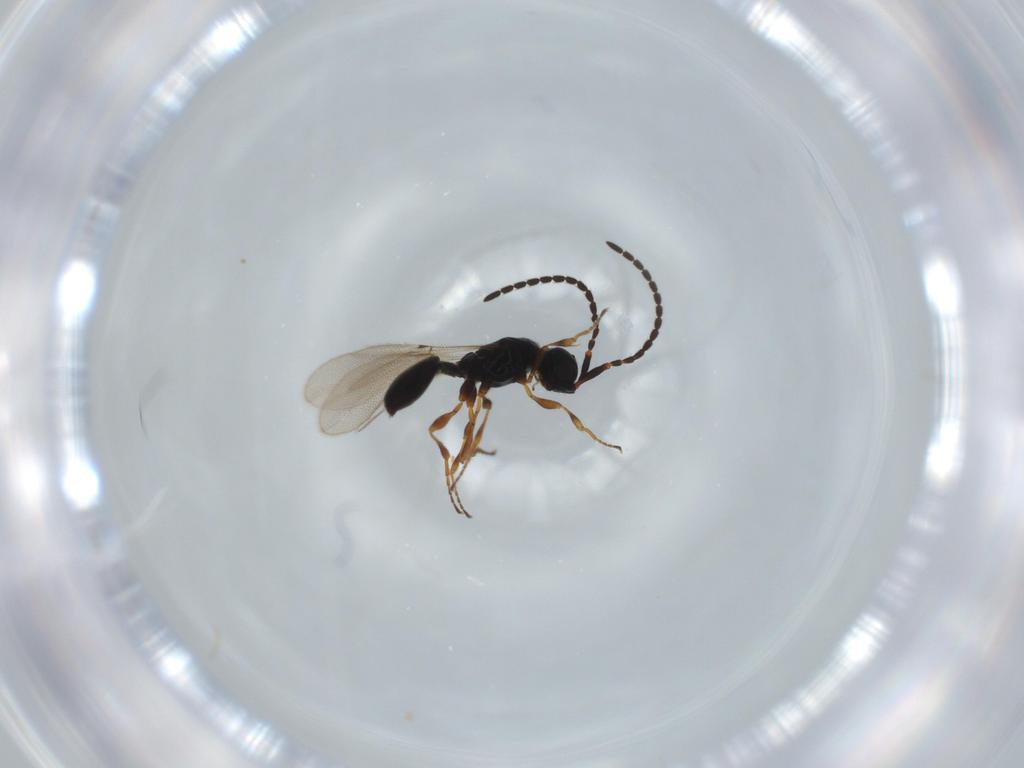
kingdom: Animalia
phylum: Arthropoda
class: Insecta
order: Hymenoptera
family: Diapriidae
